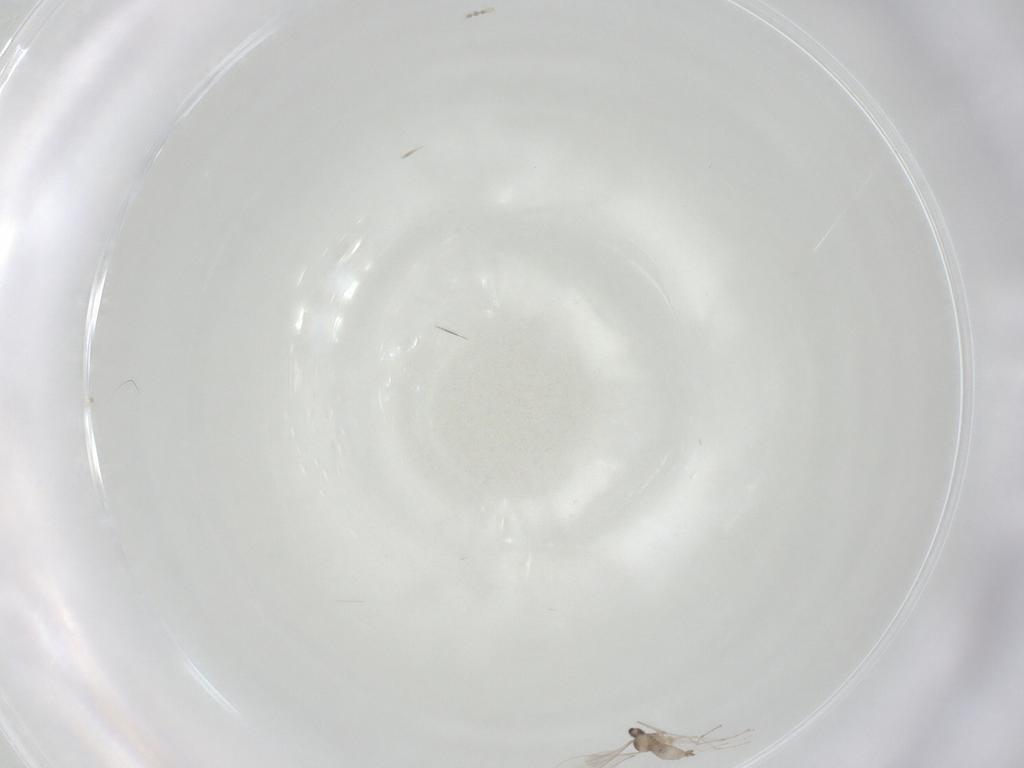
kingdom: Animalia
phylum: Arthropoda
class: Insecta
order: Diptera
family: Cecidomyiidae
